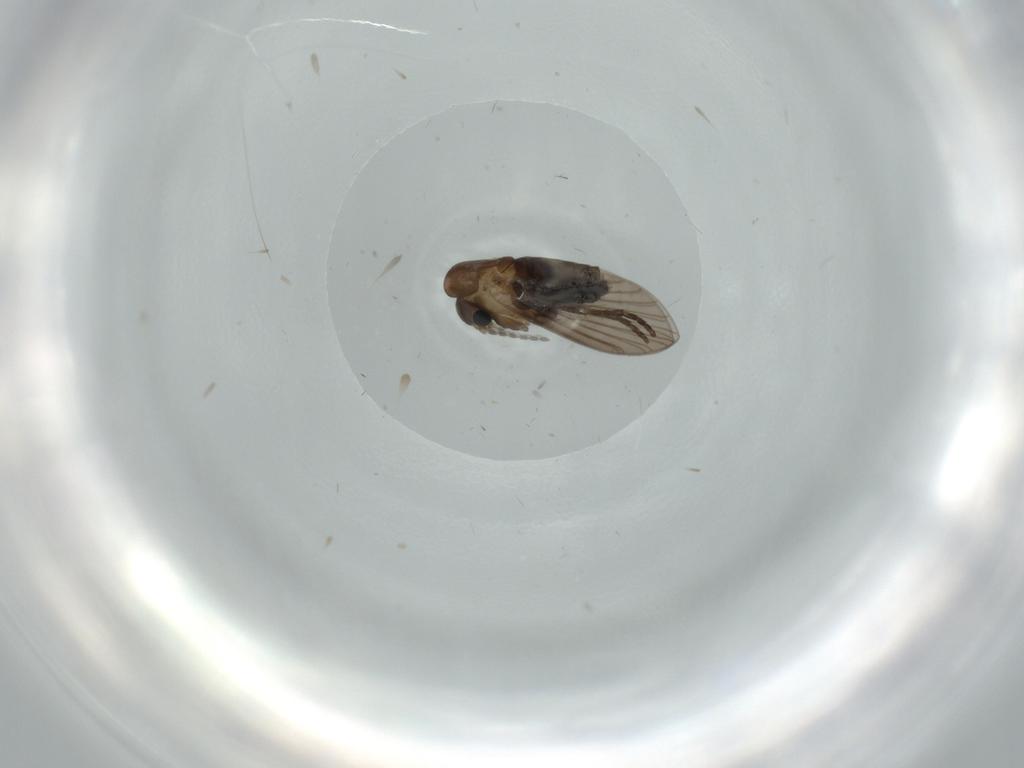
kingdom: Animalia
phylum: Arthropoda
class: Insecta
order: Diptera
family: Psychodidae
